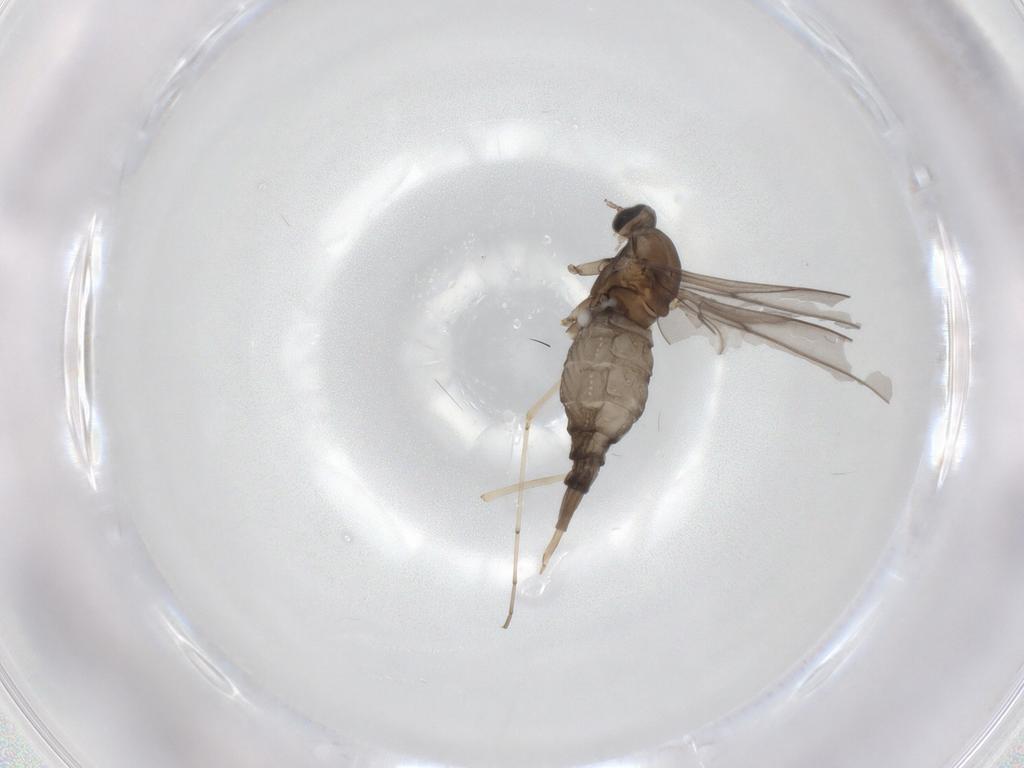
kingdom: Animalia
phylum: Arthropoda
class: Insecta
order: Diptera
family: Cecidomyiidae
